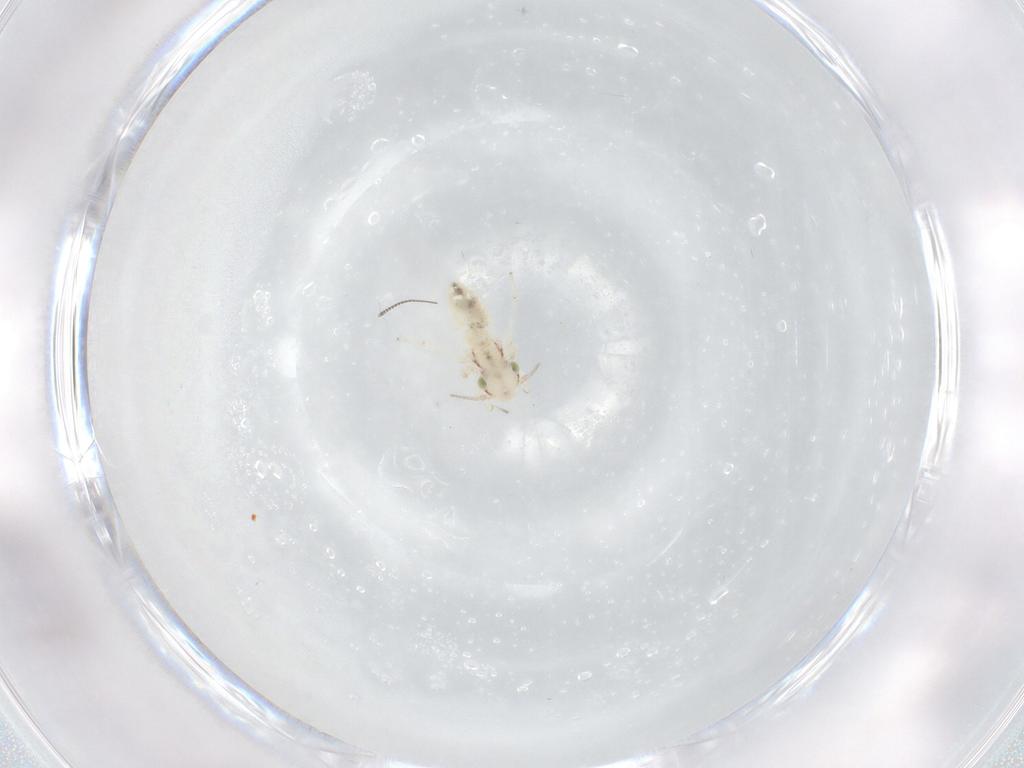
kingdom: Animalia
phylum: Arthropoda
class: Insecta
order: Psocodea
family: Lepidopsocidae
